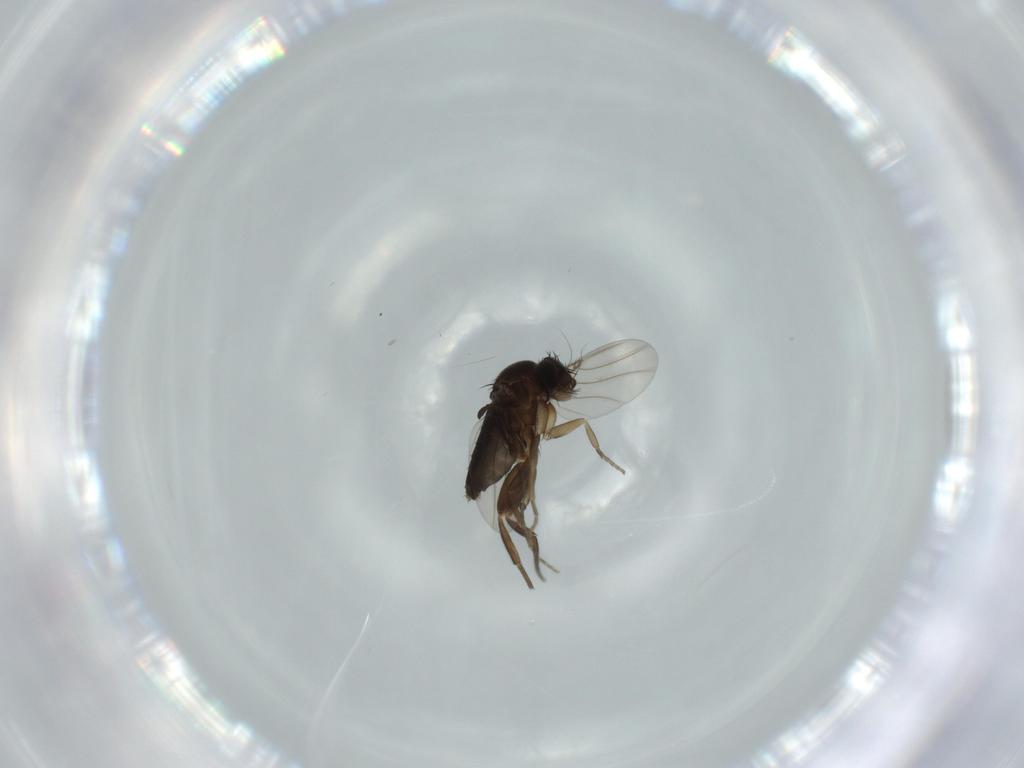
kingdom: Animalia
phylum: Arthropoda
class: Insecta
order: Diptera
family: Phoridae
